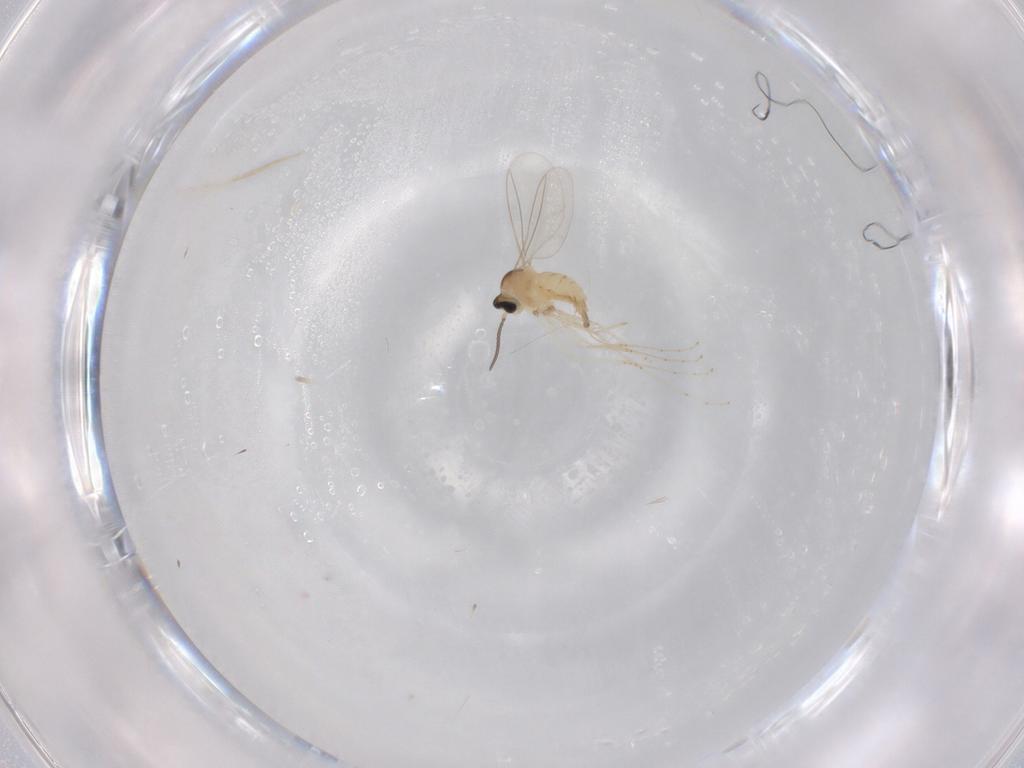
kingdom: Animalia
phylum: Arthropoda
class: Insecta
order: Diptera
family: Cecidomyiidae
